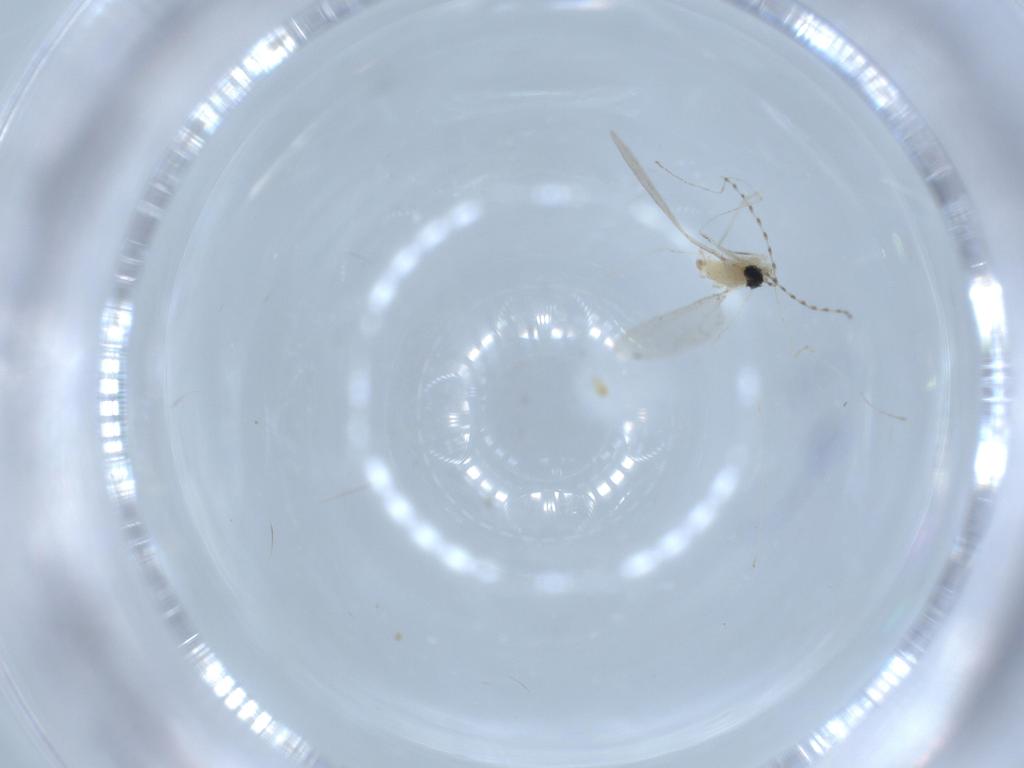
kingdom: Animalia
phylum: Arthropoda
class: Insecta
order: Diptera
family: Cecidomyiidae
